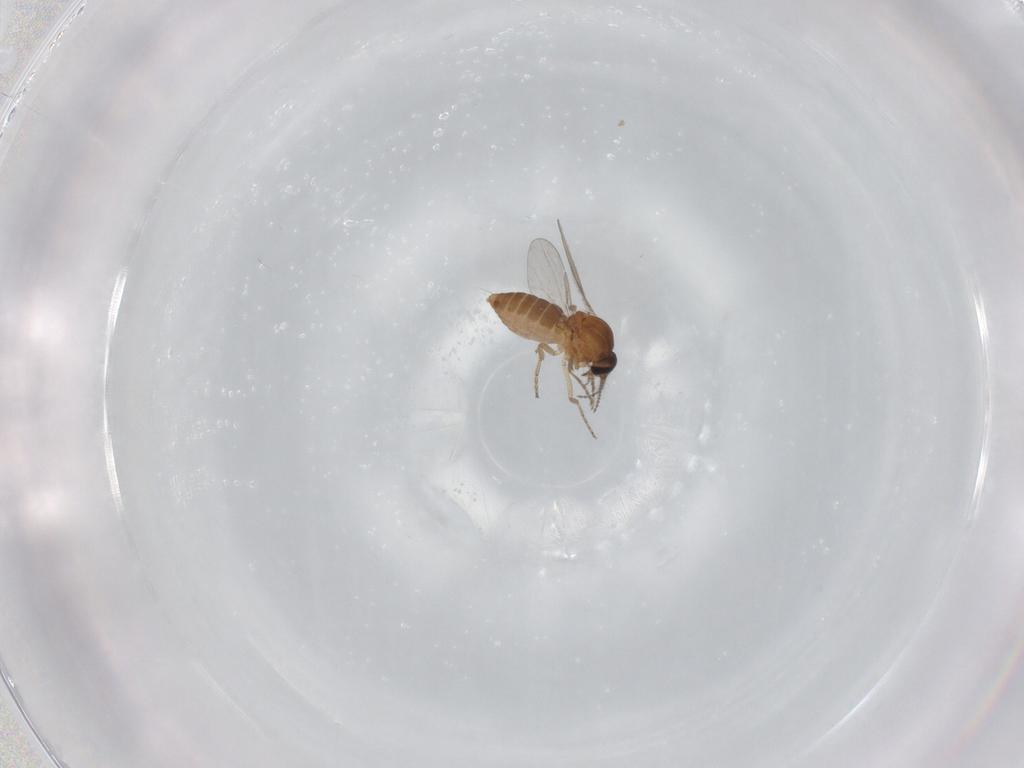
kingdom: Animalia
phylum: Arthropoda
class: Insecta
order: Diptera
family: Ceratopogonidae
